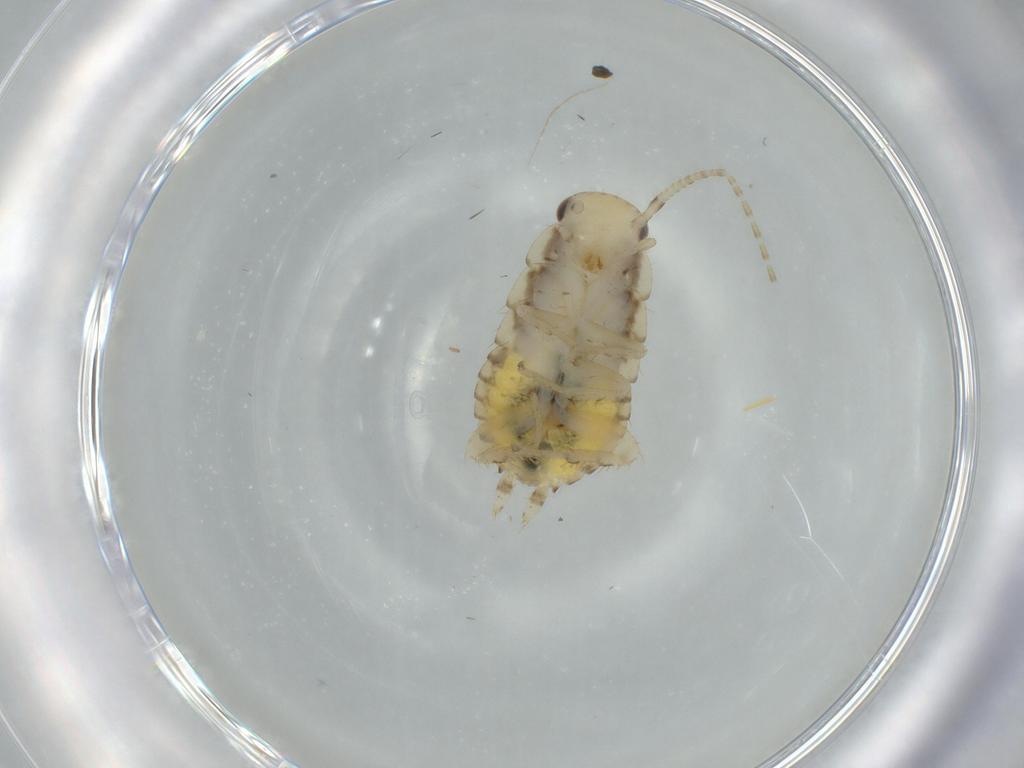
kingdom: Animalia
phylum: Arthropoda
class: Insecta
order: Blattodea
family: Ectobiidae
